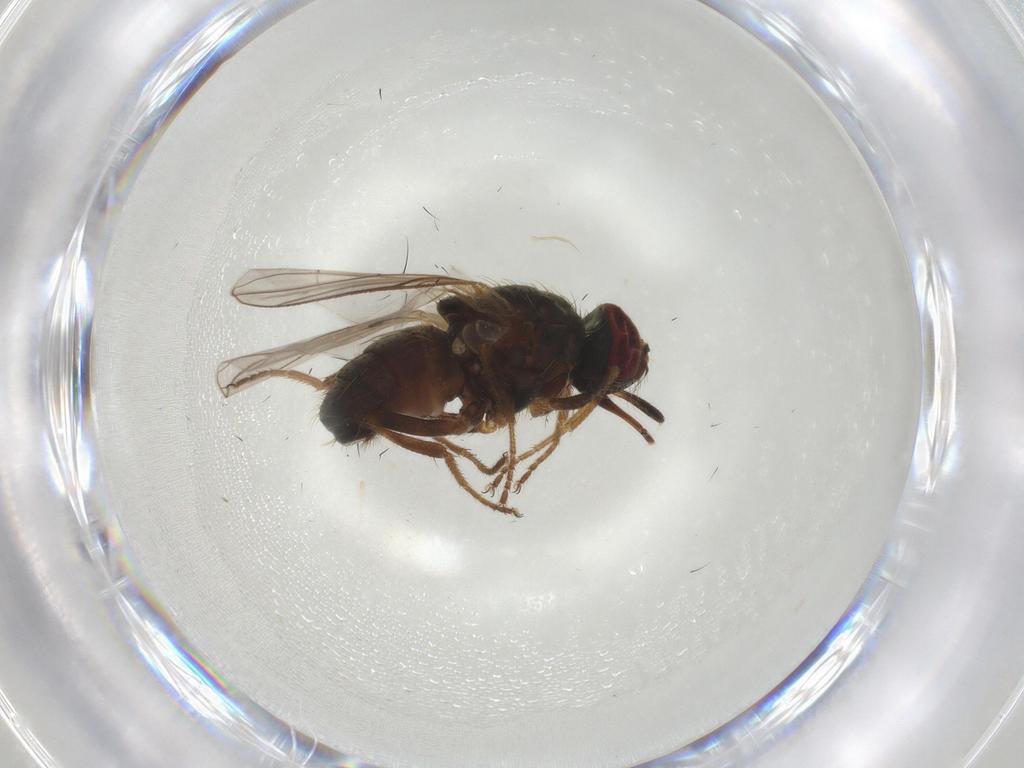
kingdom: Animalia
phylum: Arthropoda
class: Insecta
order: Diptera
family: Muscidae
